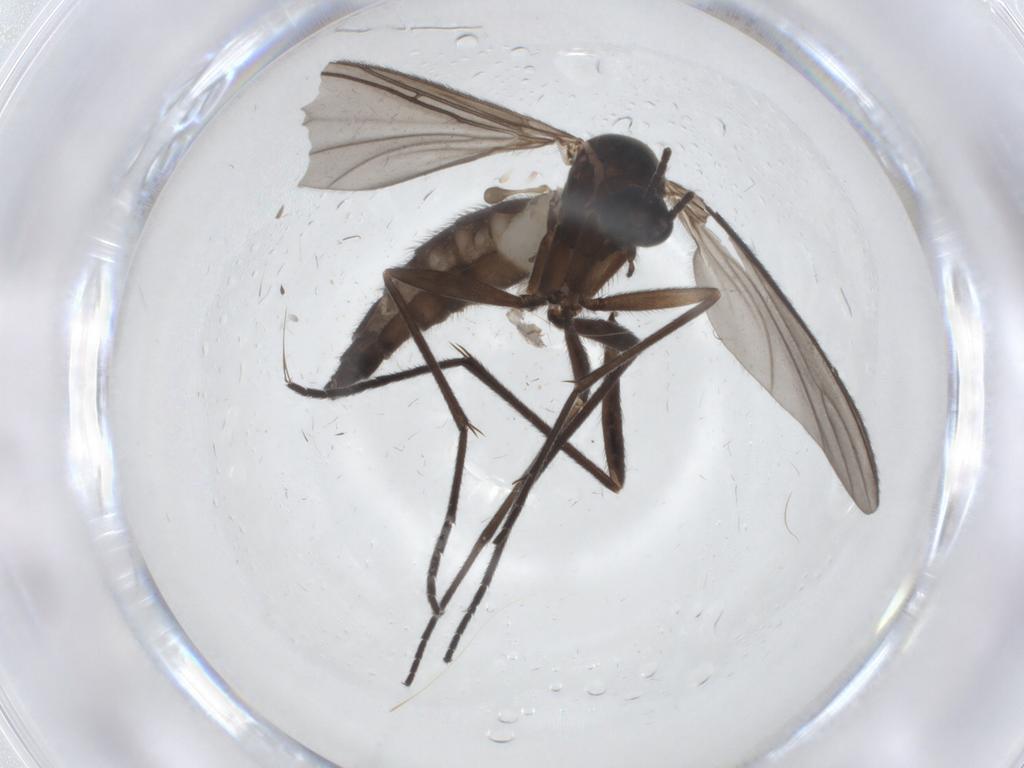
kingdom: Animalia
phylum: Arthropoda
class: Insecta
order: Diptera
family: Sciaridae
